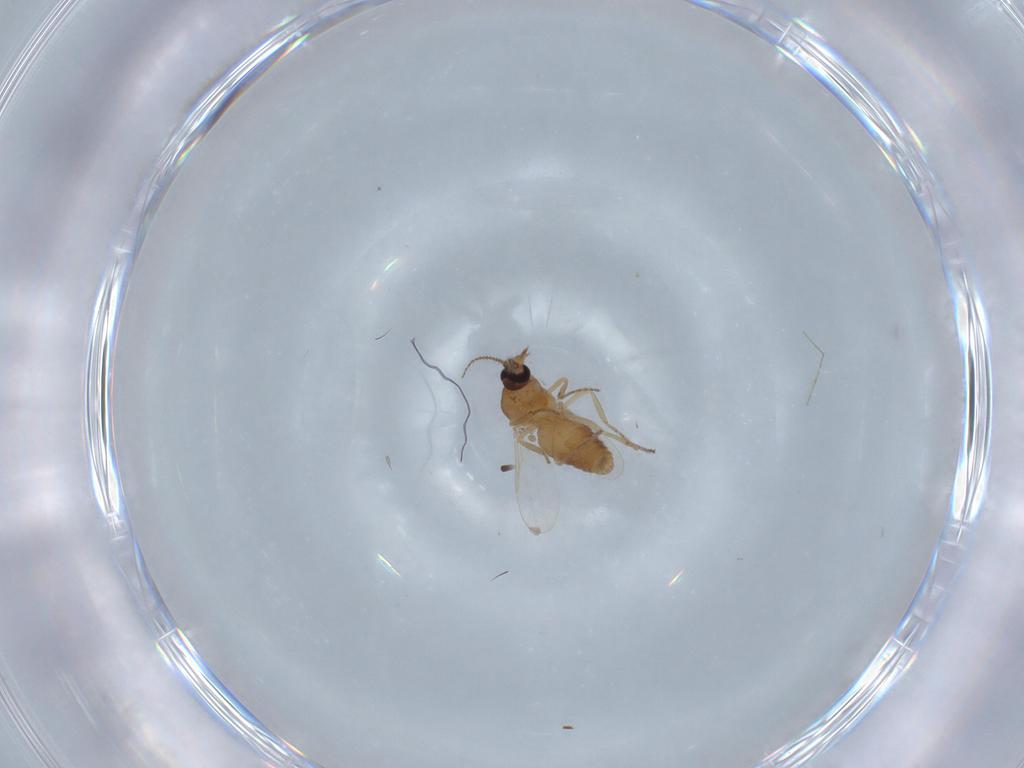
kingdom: Animalia
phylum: Arthropoda
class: Insecta
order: Diptera
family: Ceratopogonidae
